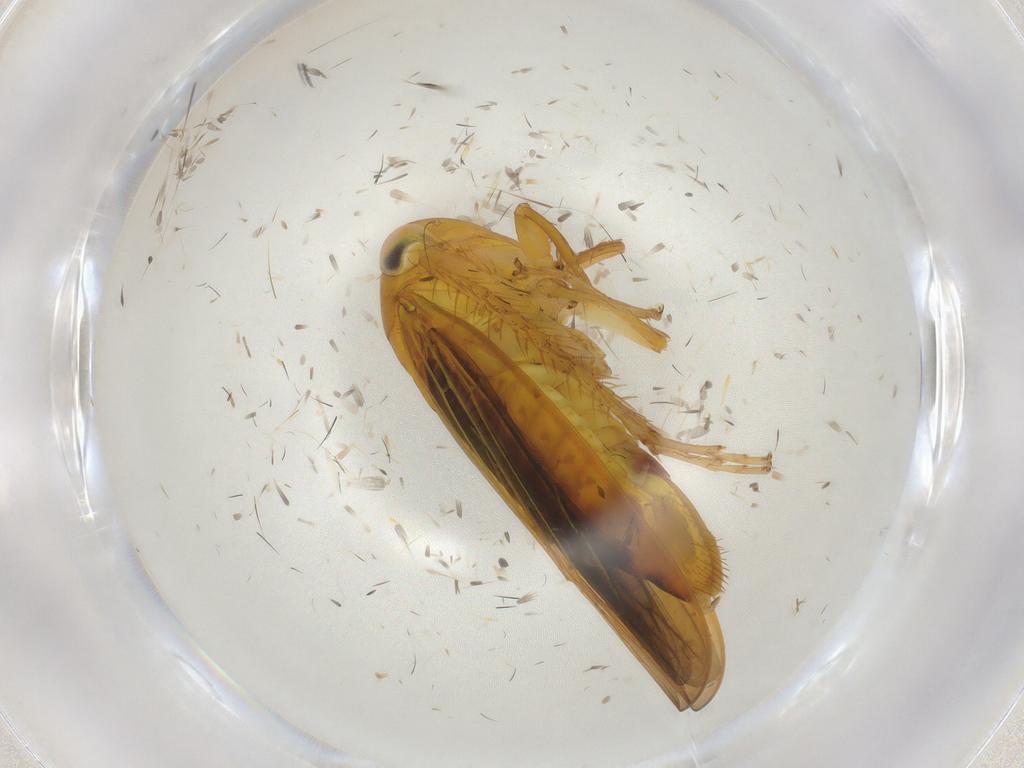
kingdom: Animalia
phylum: Arthropoda
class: Insecta
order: Hemiptera
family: Cicadellidae
